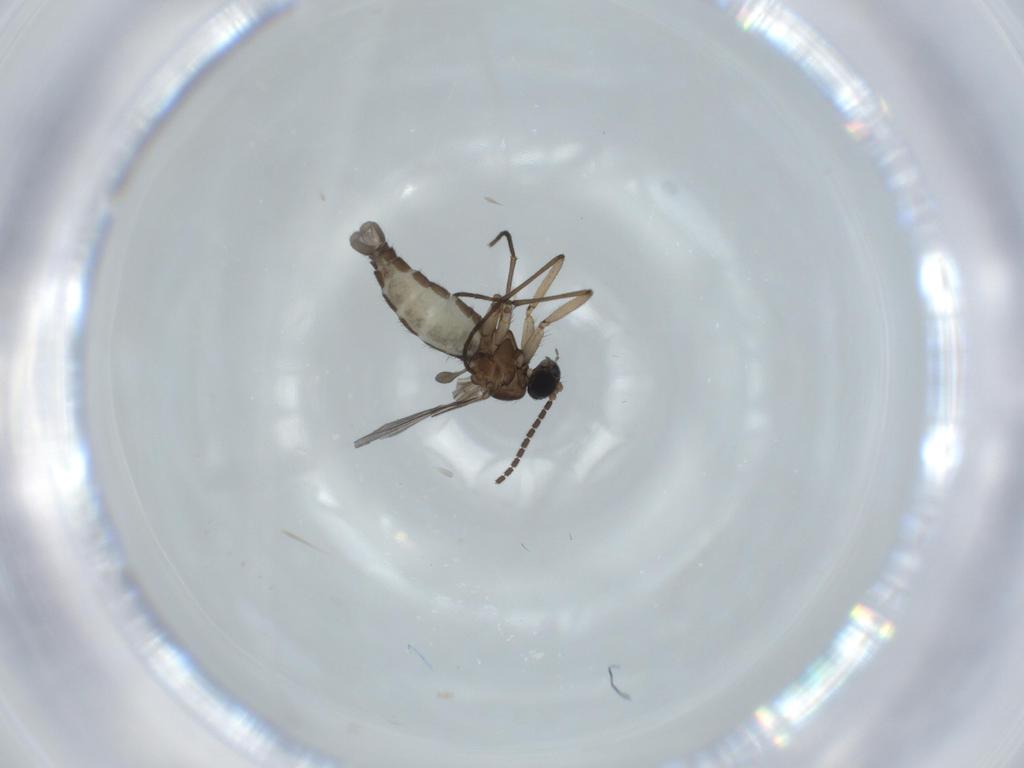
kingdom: Animalia
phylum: Arthropoda
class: Insecta
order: Diptera
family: Sciaridae
